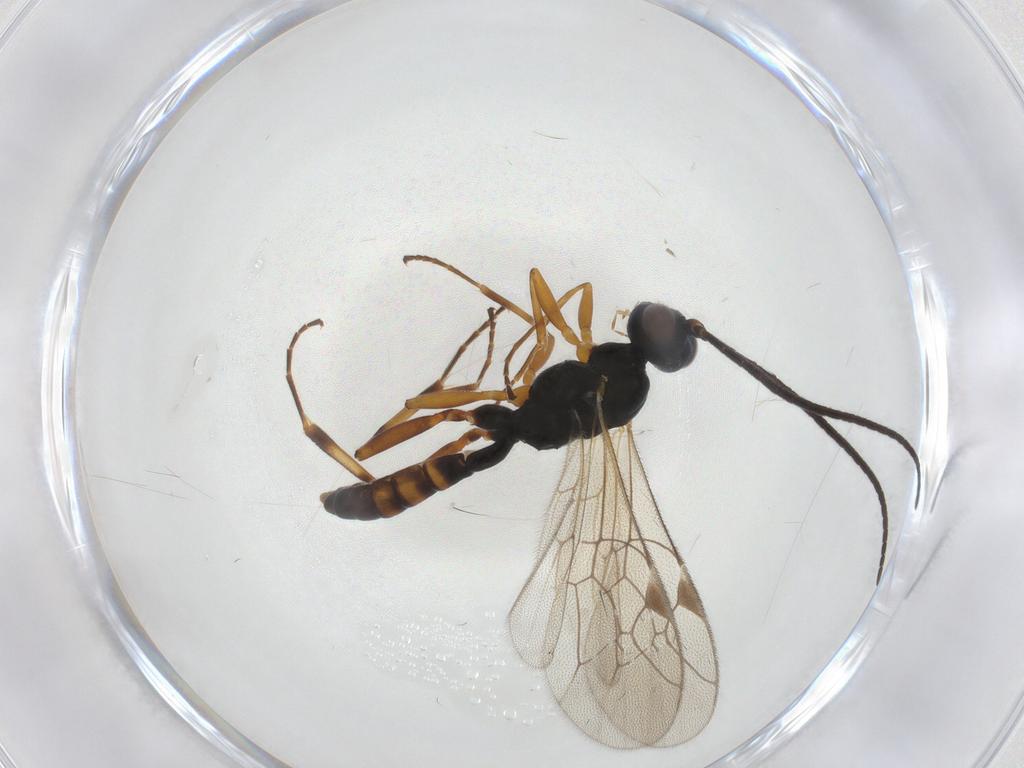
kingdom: Animalia
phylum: Arthropoda
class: Insecta
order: Hymenoptera
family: Ichneumonidae
